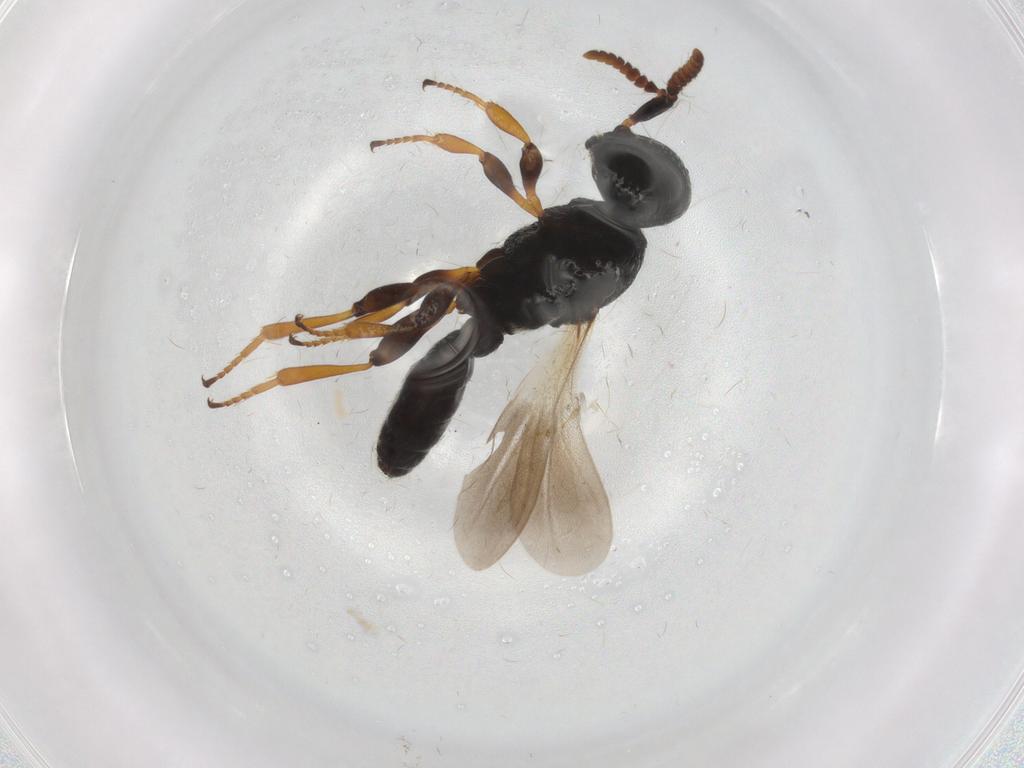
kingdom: Animalia
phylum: Arthropoda
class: Insecta
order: Hymenoptera
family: Scelionidae
